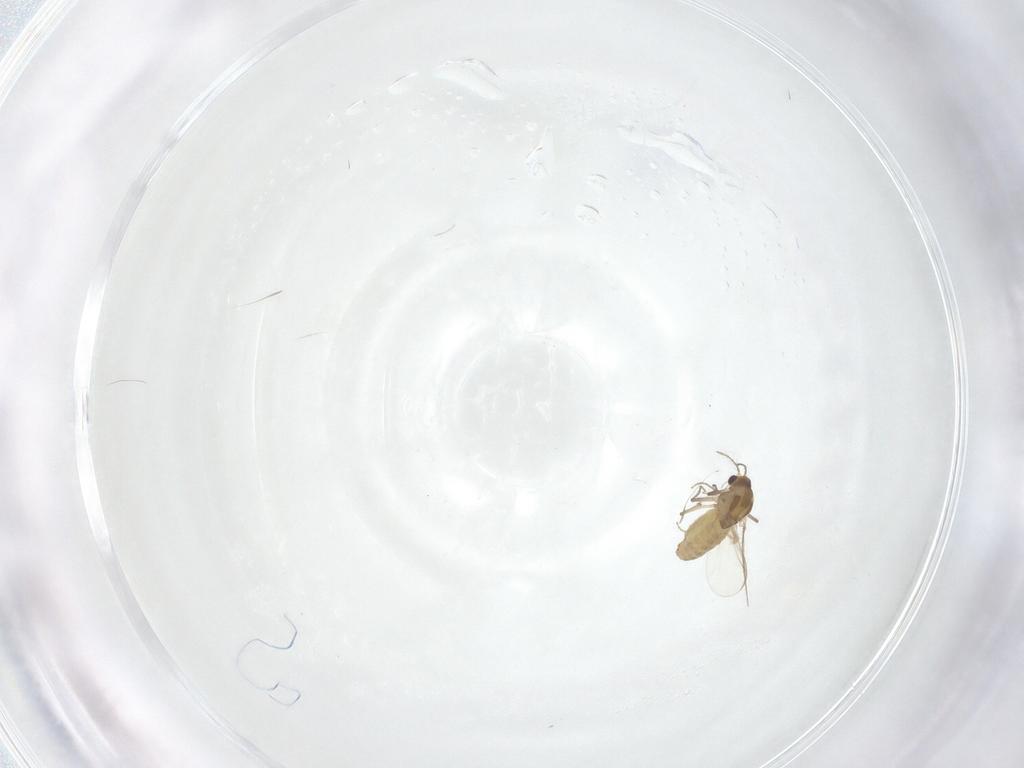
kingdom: Animalia
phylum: Arthropoda
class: Insecta
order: Diptera
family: Chironomidae
